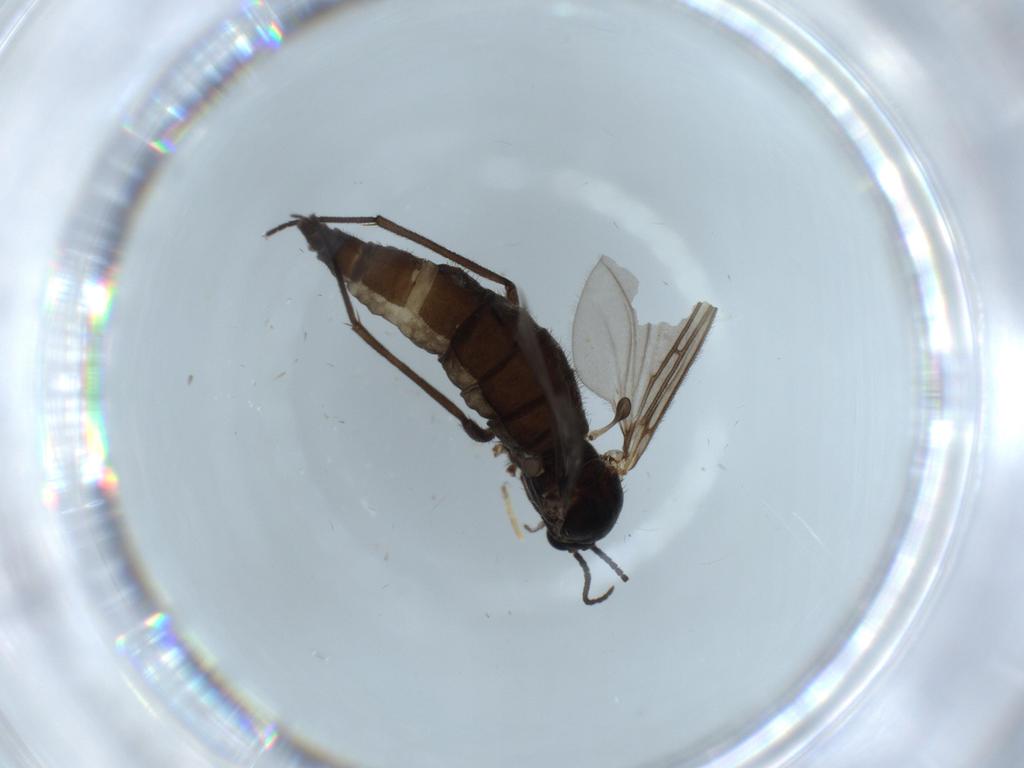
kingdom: Animalia
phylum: Arthropoda
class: Insecta
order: Diptera
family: Sciaridae
